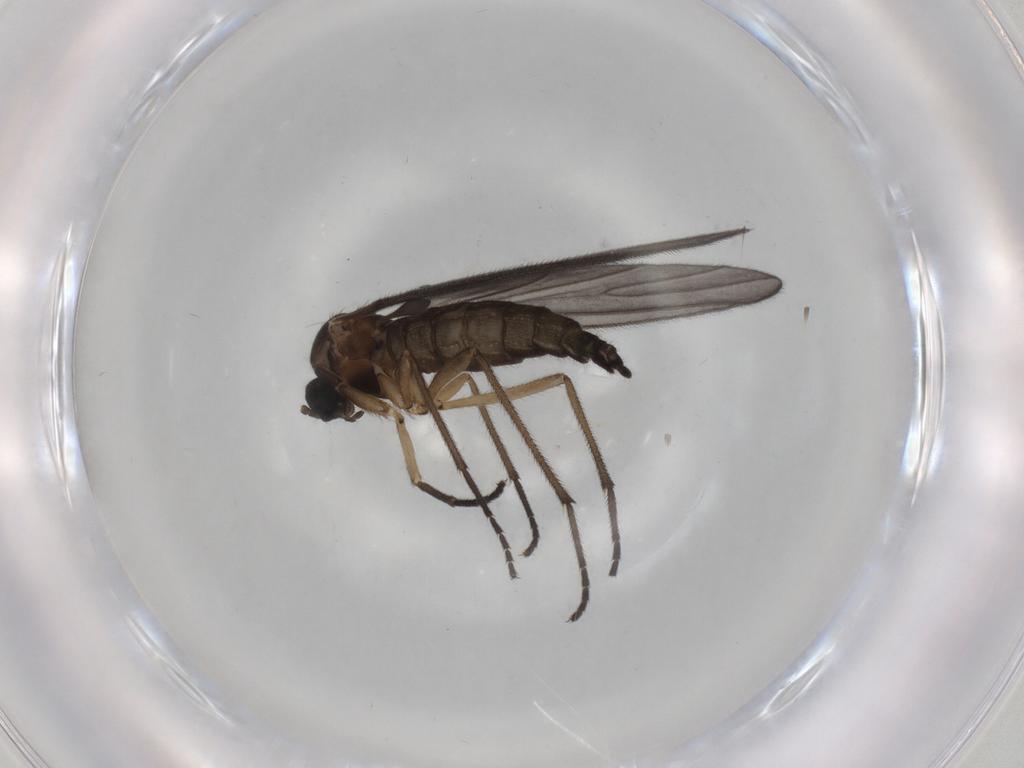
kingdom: Animalia
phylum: Arthropoda
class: Insecta
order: Diptera
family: Sciaridae
